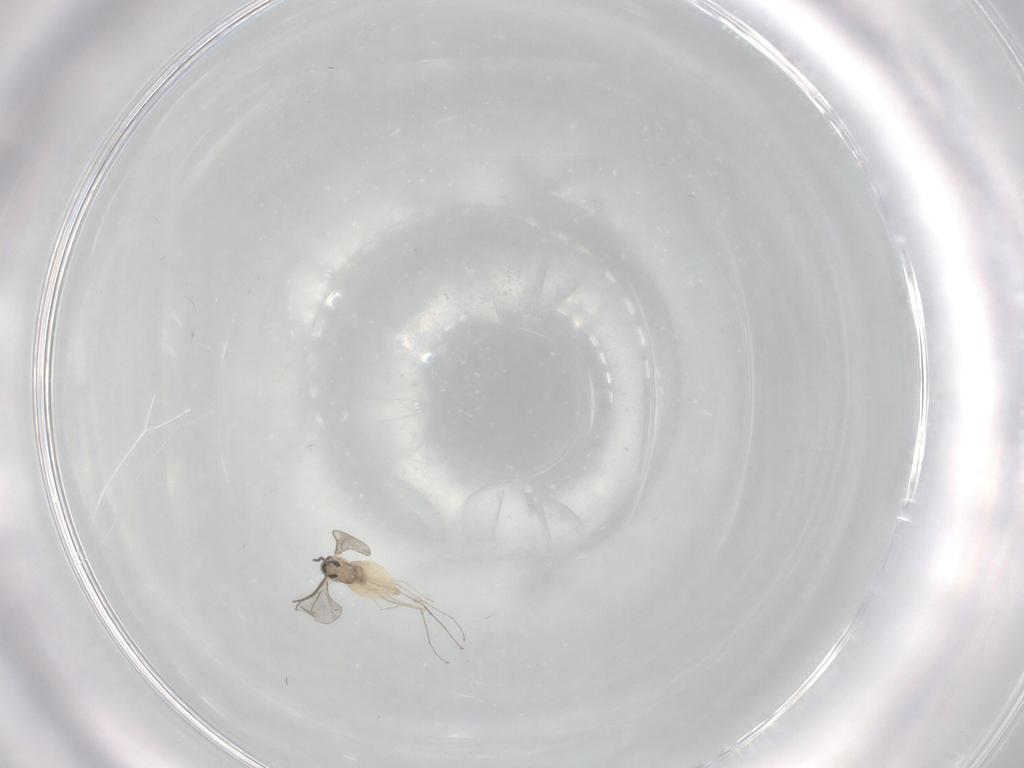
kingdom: Animalia
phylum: Arthropoda
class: Insecta
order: Diptera
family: Cecidomyiidae
